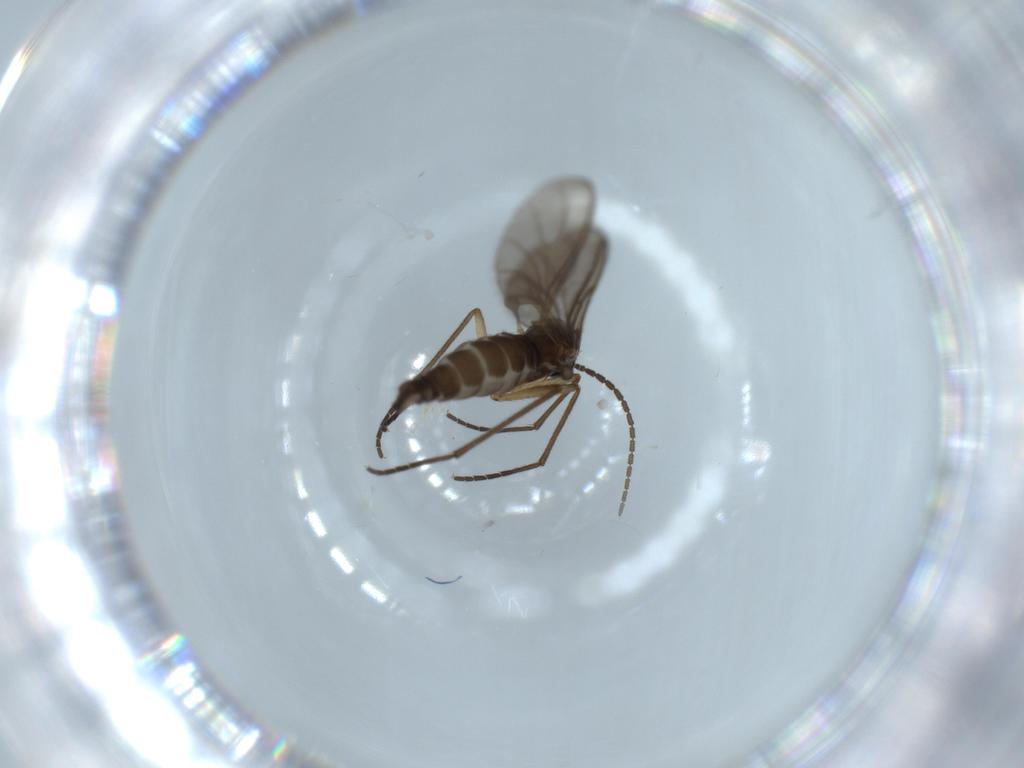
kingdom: Animalia
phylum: Arthropoda
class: Insecta
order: Diptera
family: Sciaridae
